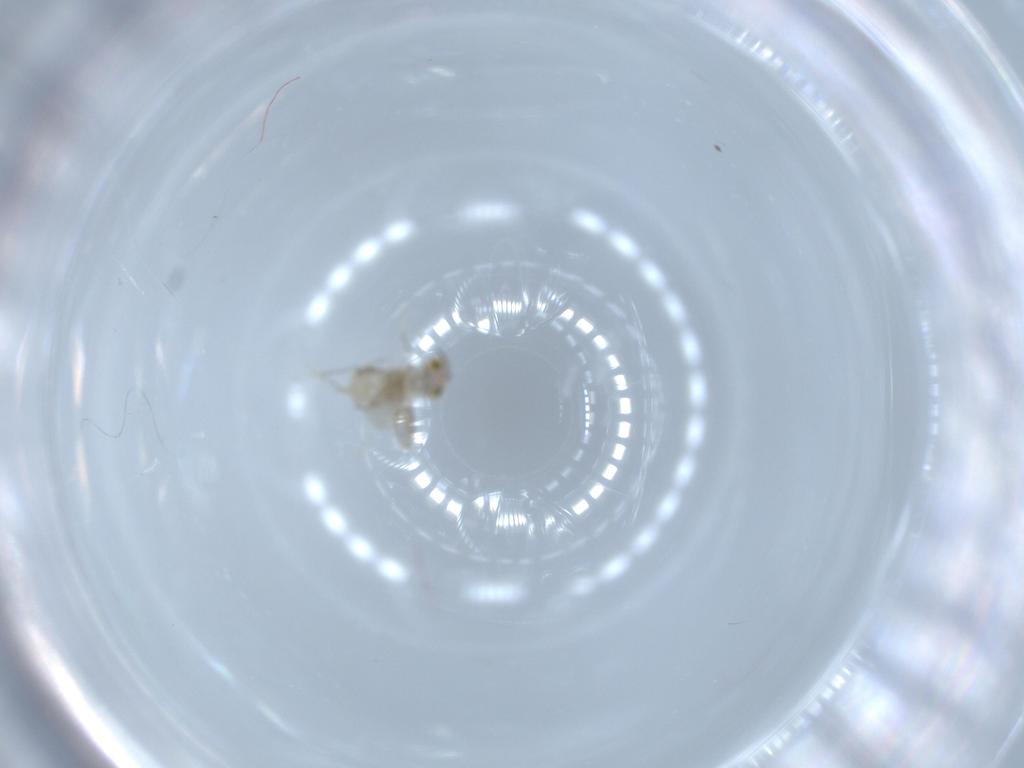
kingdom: Animalia
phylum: Arthropoda
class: Insecta
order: Hymenoptera
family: Aphelinidae
